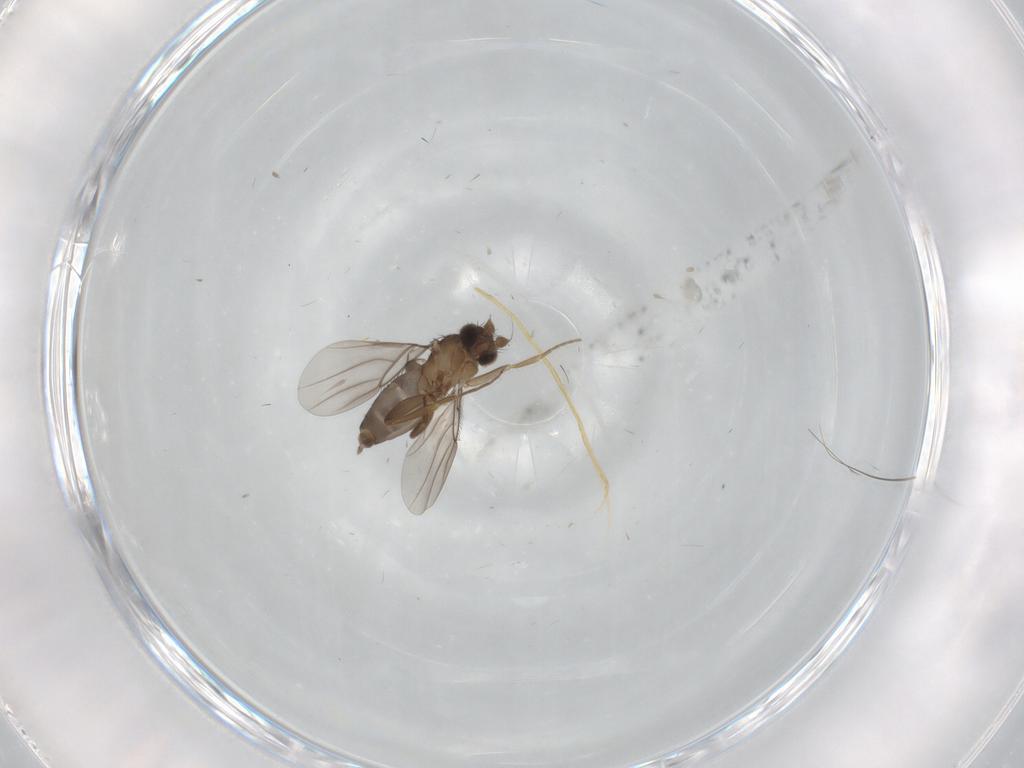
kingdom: Animalia
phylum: Arthropoda
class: Insecta
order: Diptera
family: Phoridae
